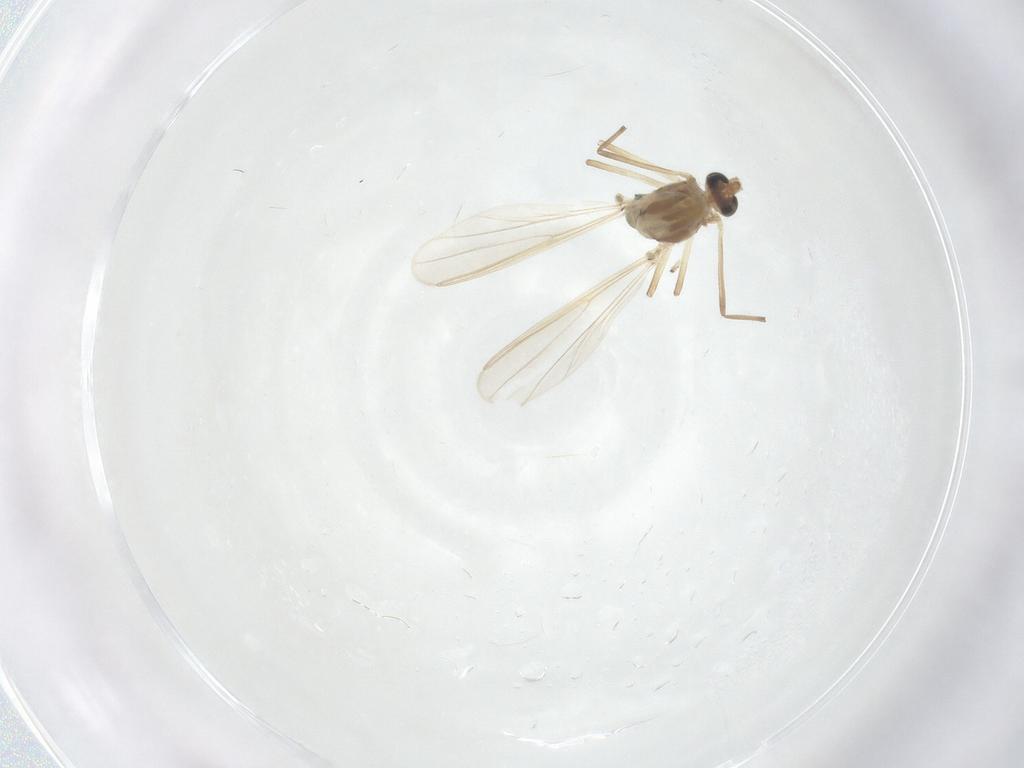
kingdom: Animalia
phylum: Arthropoda
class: Insecta
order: Diptera
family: Chironomidae
